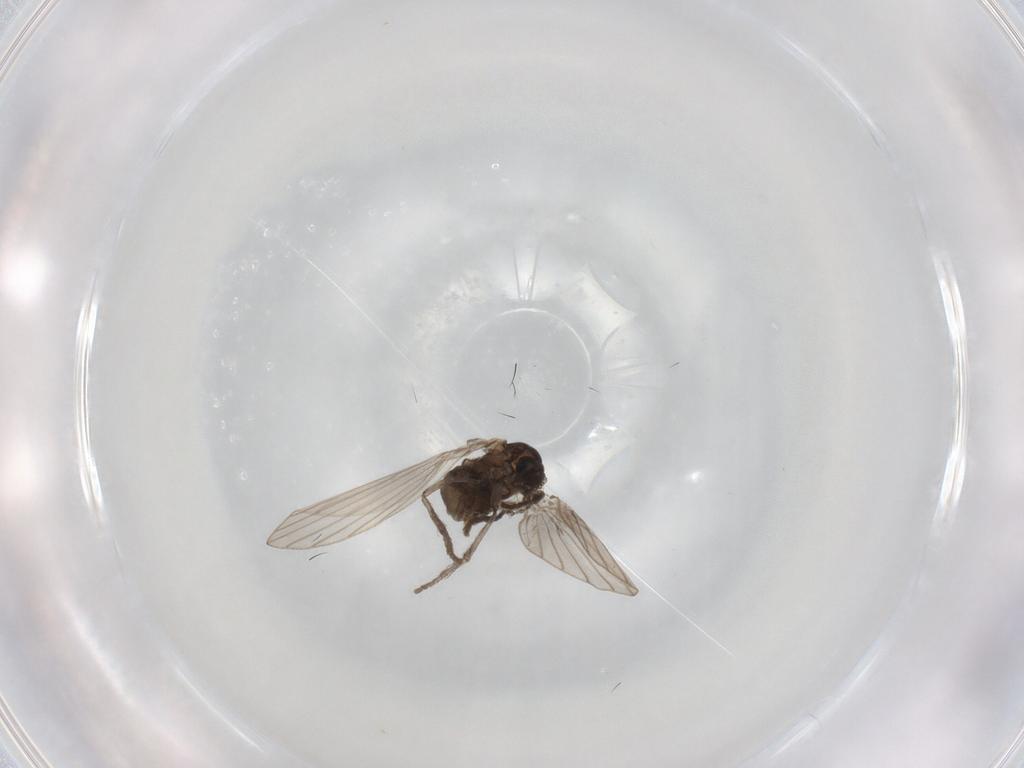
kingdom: Animalia
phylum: Arthropoda
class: Insecta
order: Diptera
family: Psychodidae
